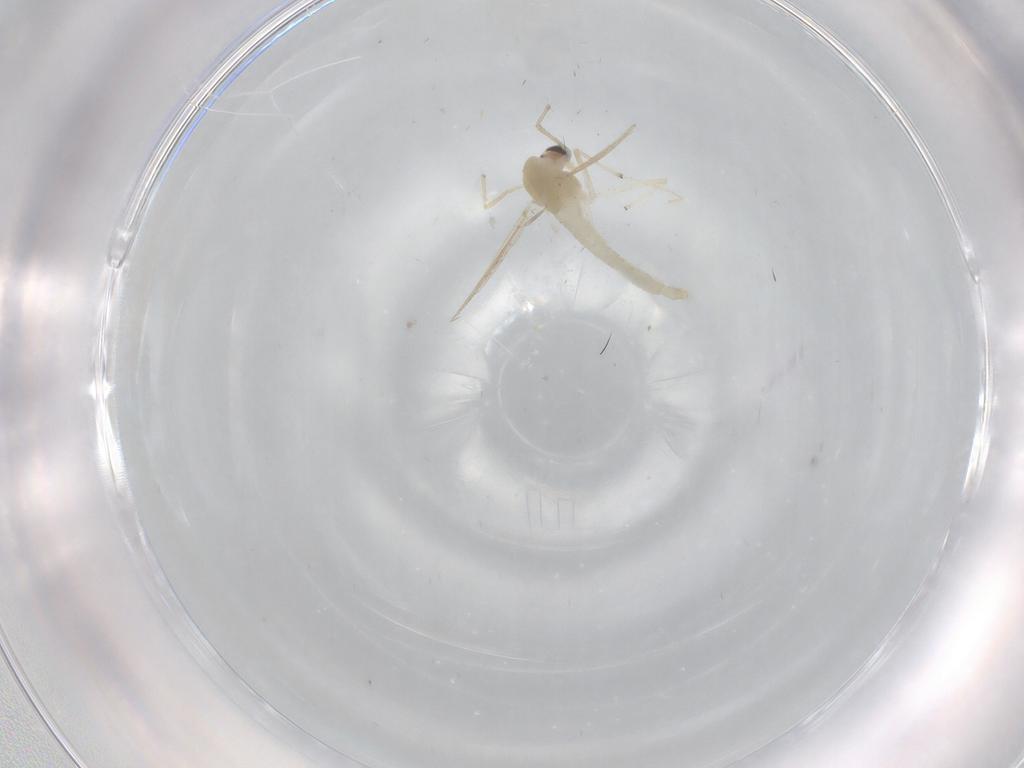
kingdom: Animalia
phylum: Arthropoda
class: Insecta
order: Diptera
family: Chironomidae
